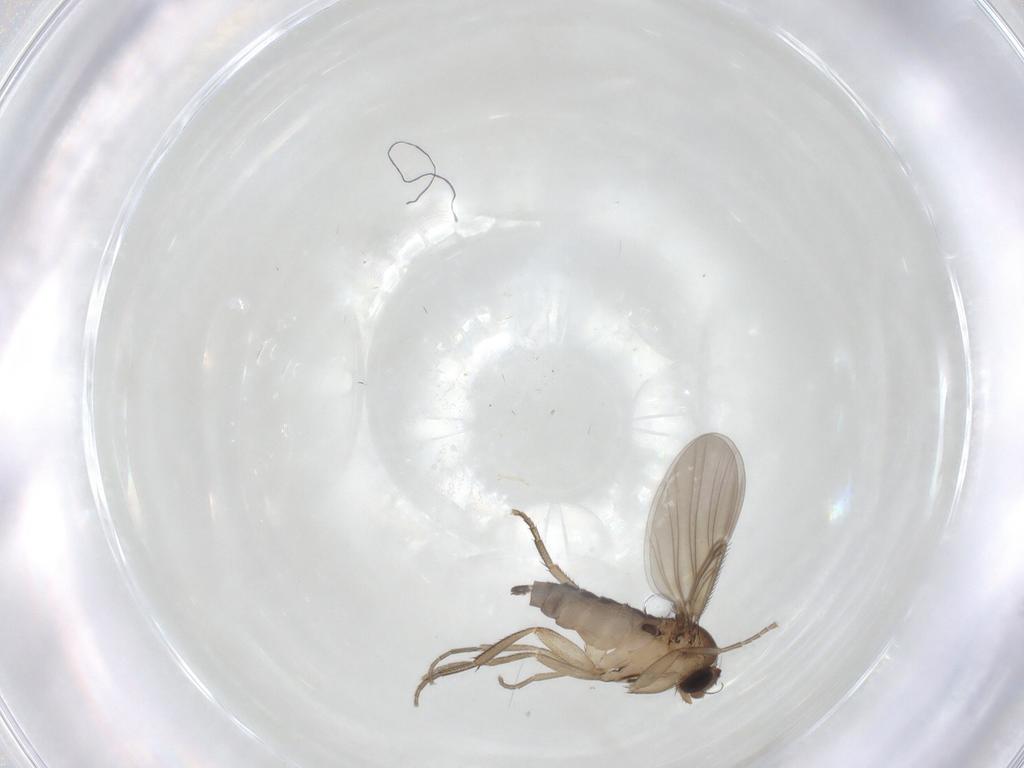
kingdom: Animalia
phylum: Arthropoda
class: Insecta
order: Diptera
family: Phoridae
